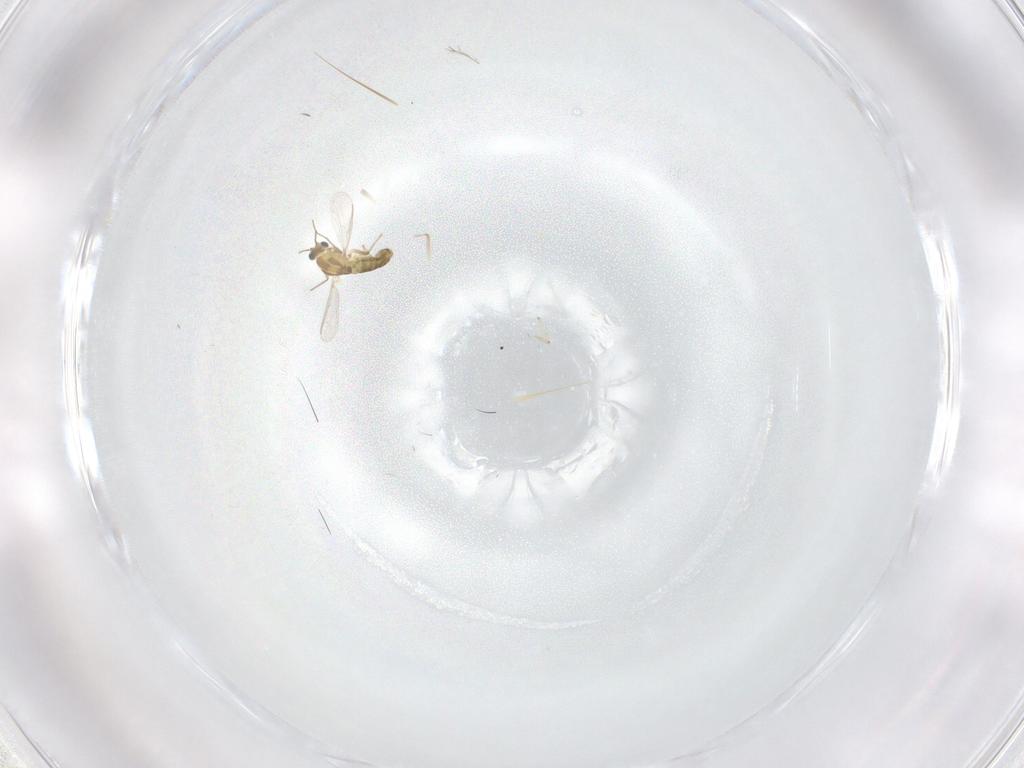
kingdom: Animalia
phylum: Arthropoda
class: Insecta
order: Diptera
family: Chironomidae
